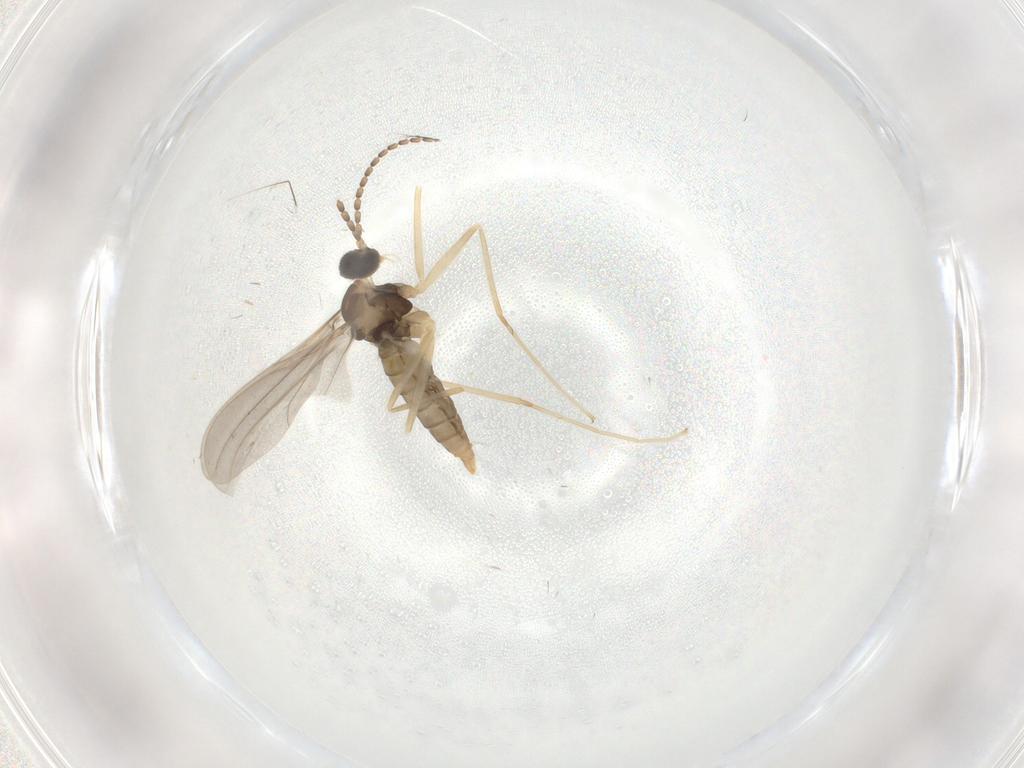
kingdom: Animalia
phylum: Arthropoda
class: Insecta
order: Diptera
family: Cecidomyiidae
